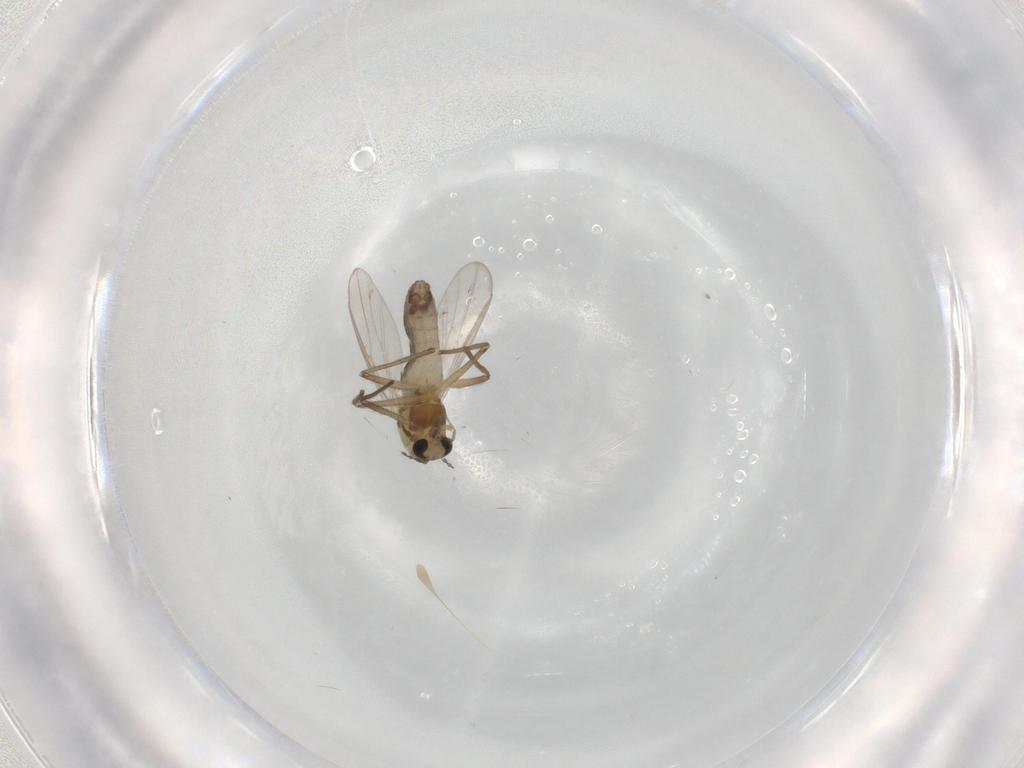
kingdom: Animalia
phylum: Arthropoda
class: Insecta
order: Diptera
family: Chironomidae
